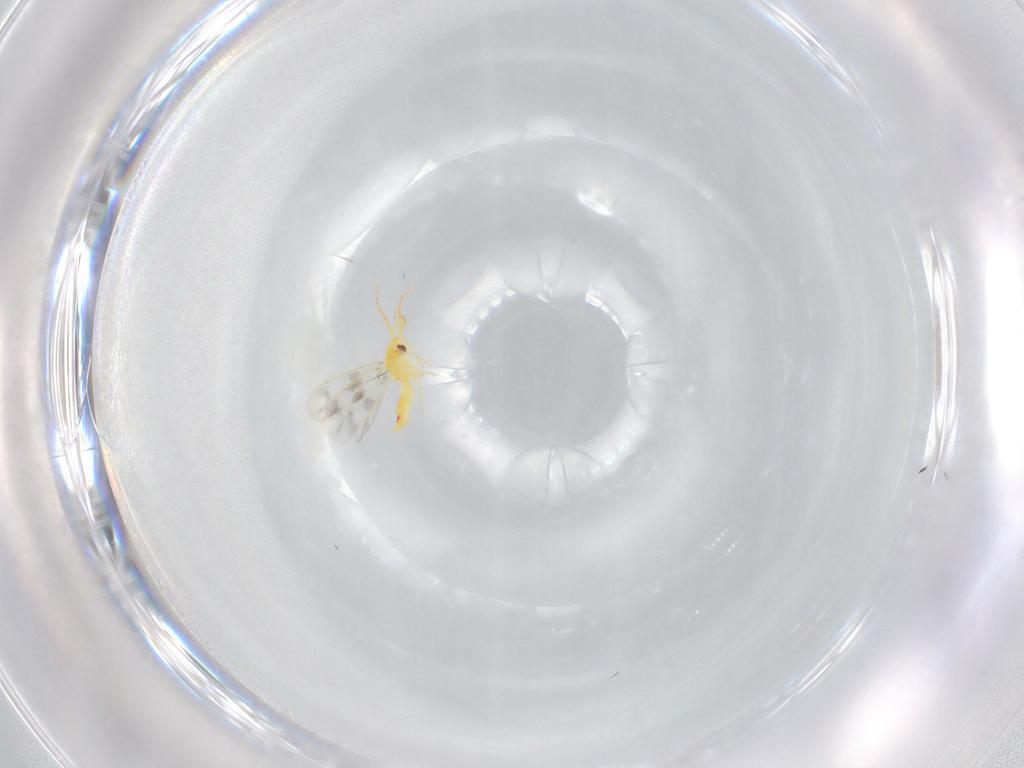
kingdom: Animalia
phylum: Arthropoda
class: Insecta
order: Hemiptera
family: Aleyrodidae
